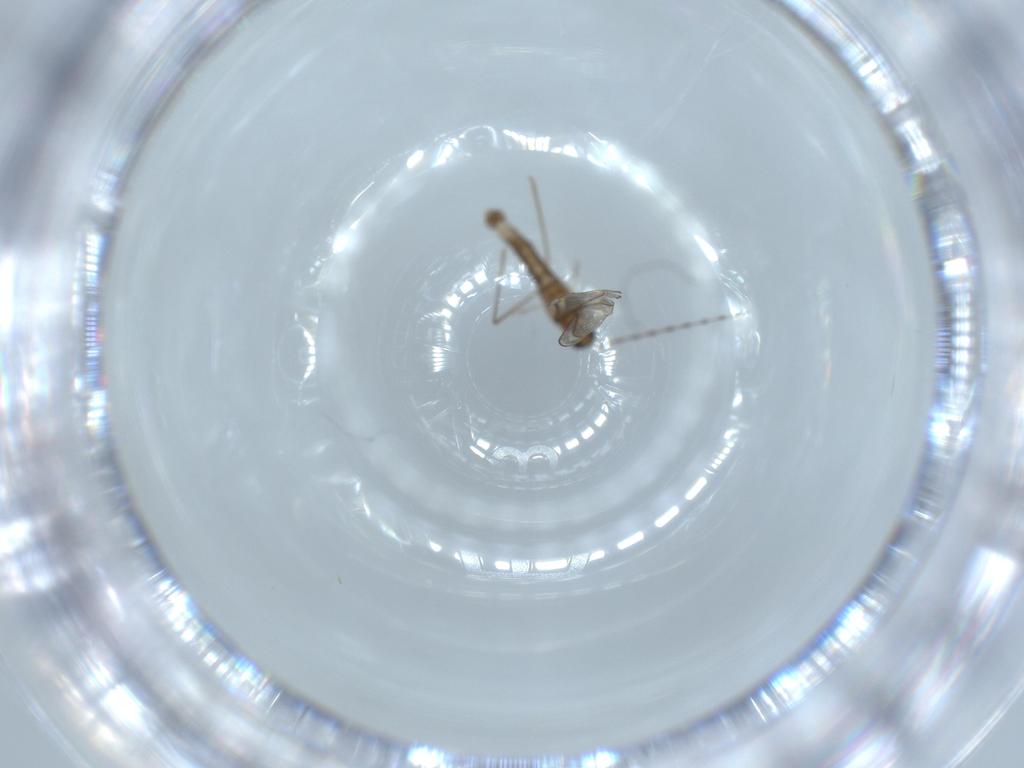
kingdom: Animalia
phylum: Arthropoda
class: Insecta
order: Diptera
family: Cecidomyiidae
